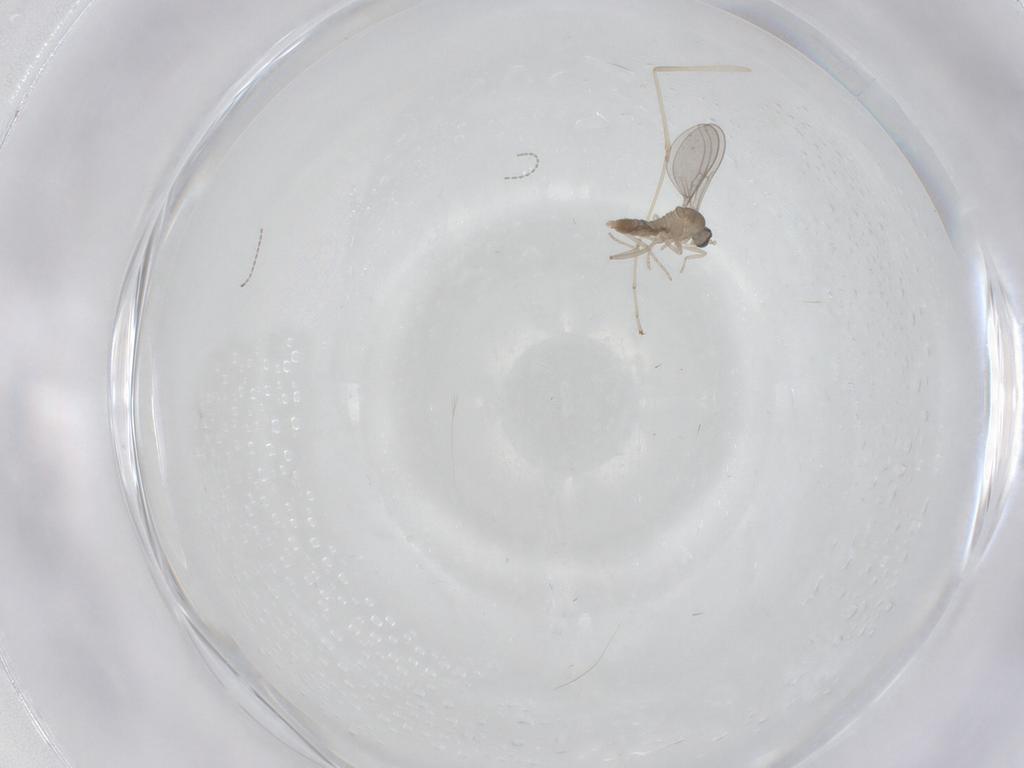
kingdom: Animalia
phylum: Arthropoda
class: Insecta
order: Diptera
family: Cecidomyiidae
